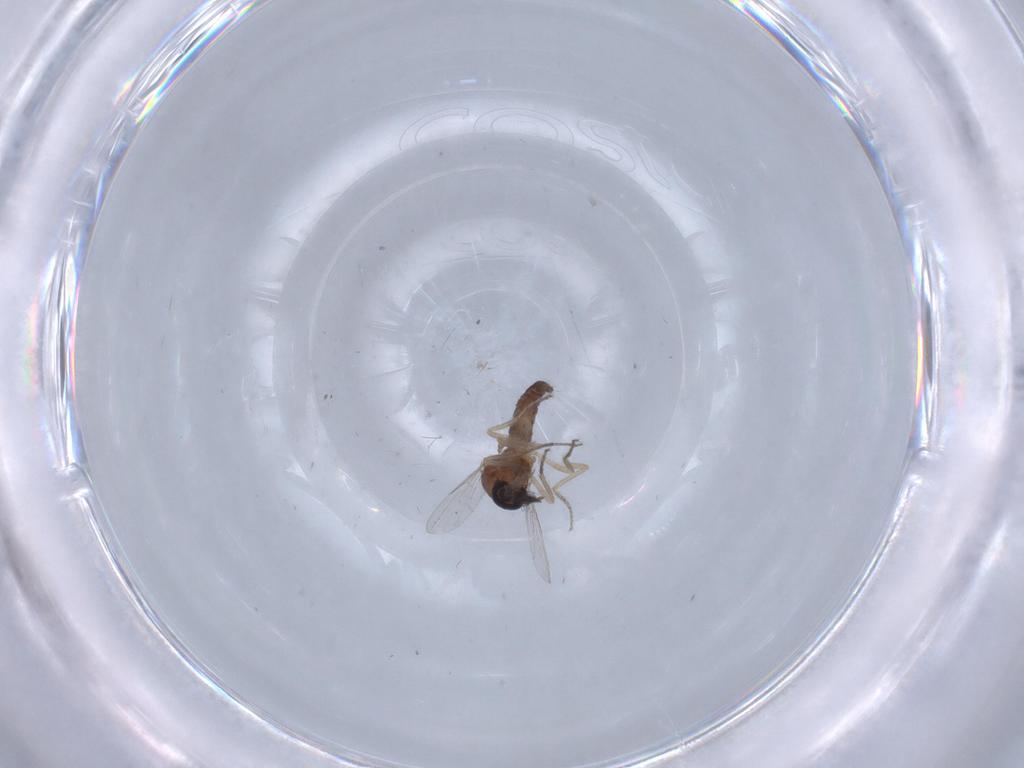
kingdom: Animalia
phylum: Arthropoda
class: Insecta
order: Diptera
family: Ceratopogonidae
